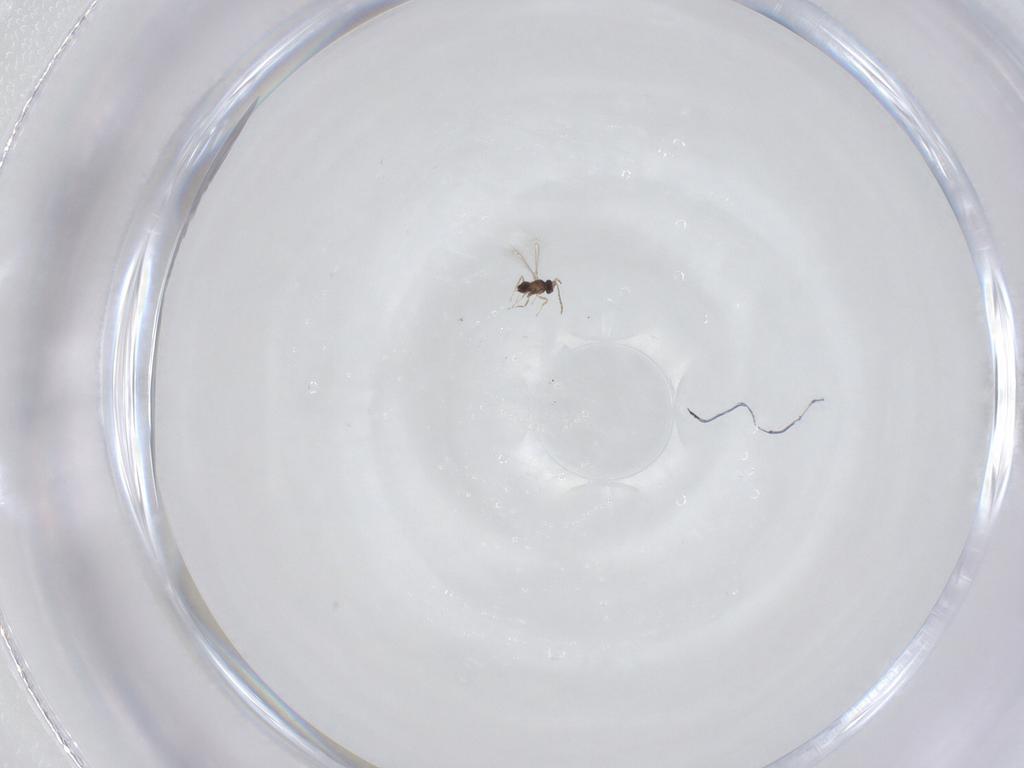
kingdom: Animalia
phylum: Arthropoda
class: Insecta
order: Hymenoptera
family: Mymaridae
